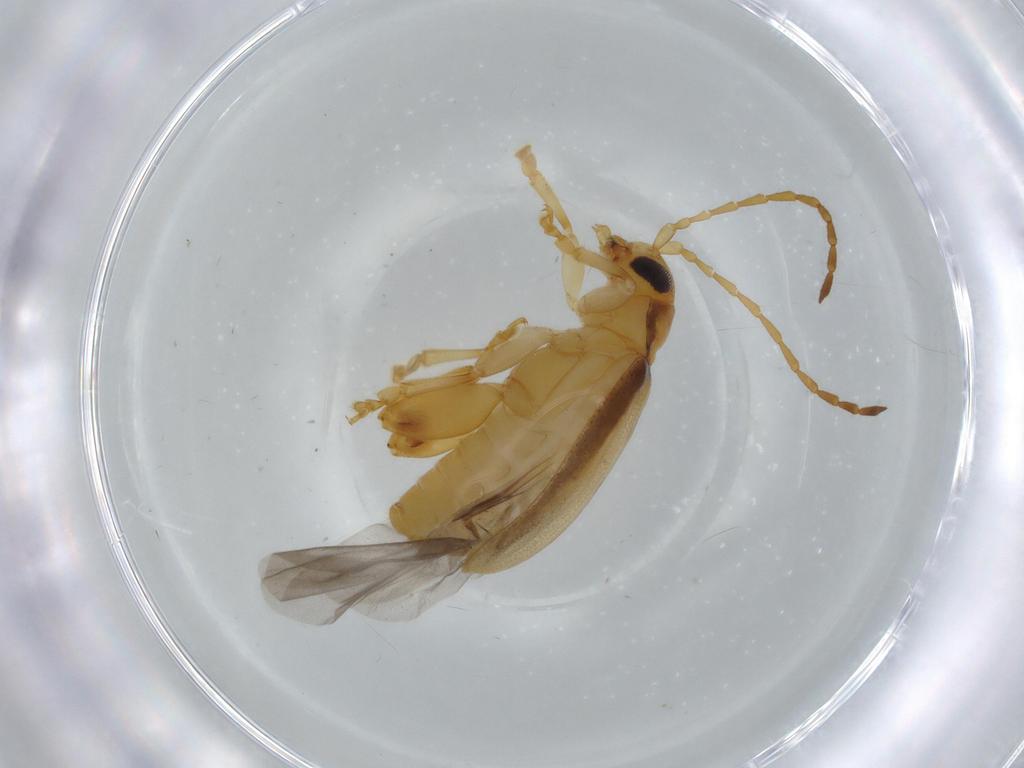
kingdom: Animalia
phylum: Arthropoda
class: Insecta
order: Coleoptera
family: Chrysomelidae
